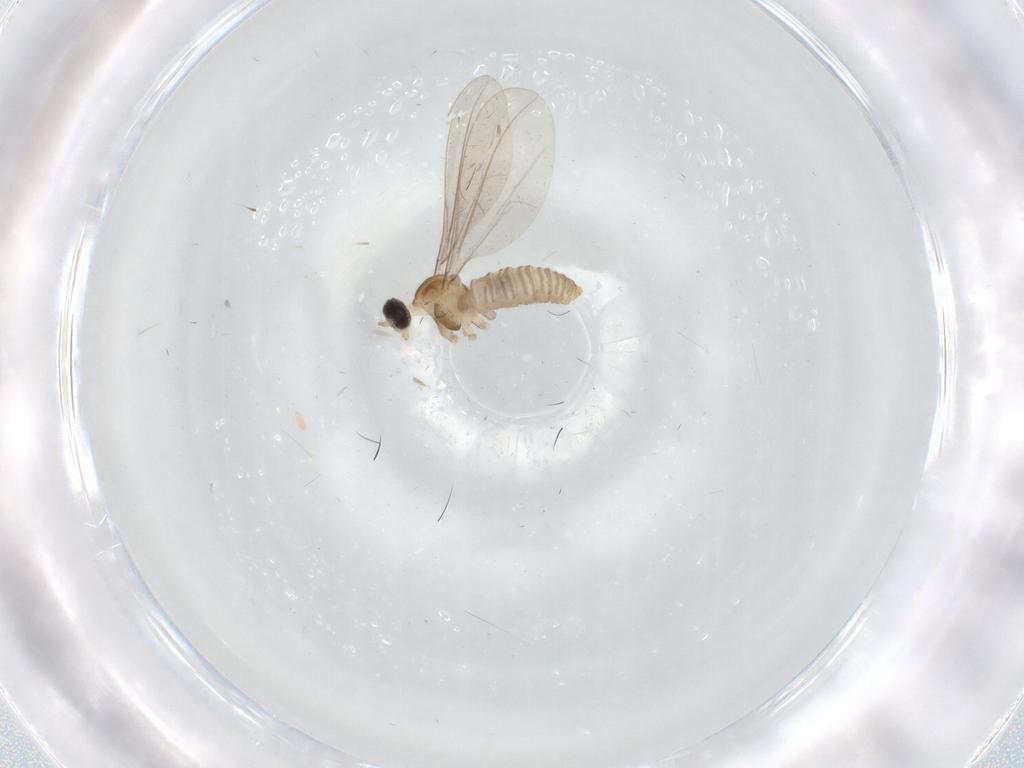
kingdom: Animalia
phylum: Arthropoda
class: Insecta
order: Diptera
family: Cecidomyiidae
